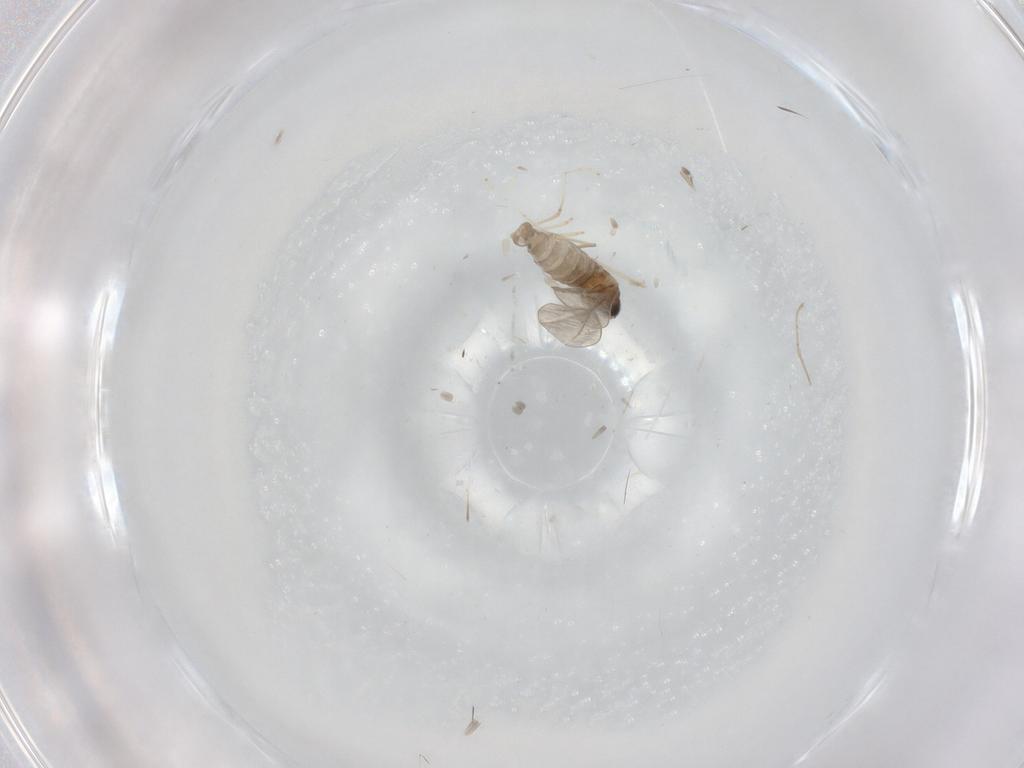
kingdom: Animalia
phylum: Arthropoda
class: Insecta
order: Diptera
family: Cecidomyiidae
